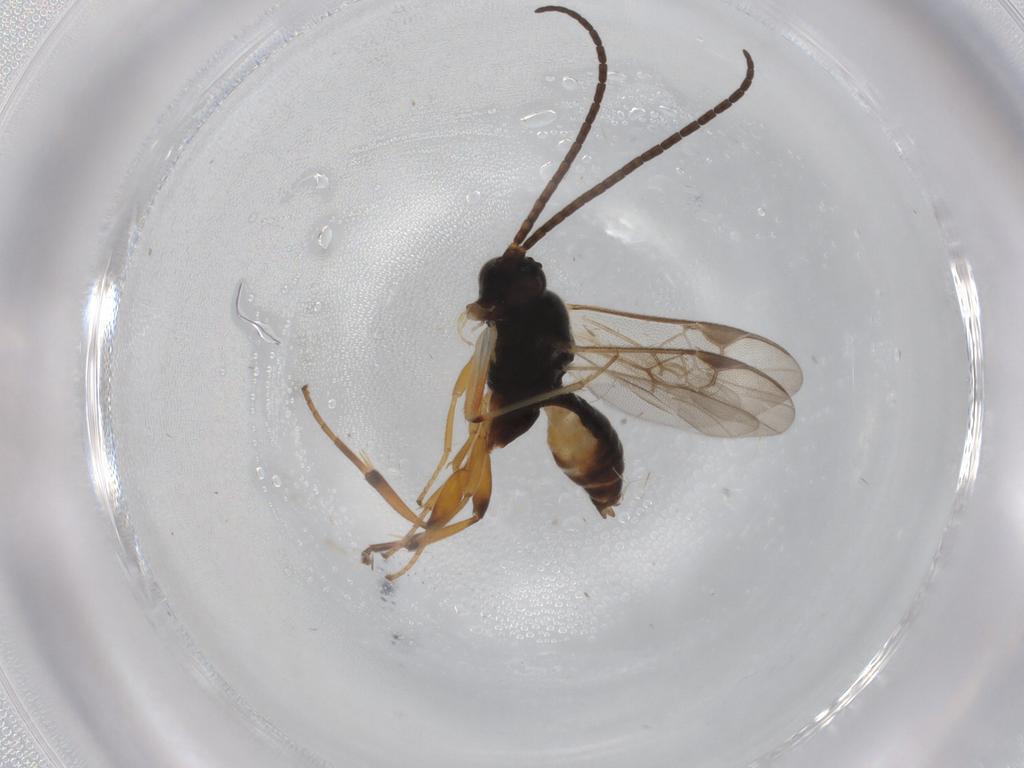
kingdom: Animalia
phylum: Arthropoda
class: Insecta
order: Hymenoptera
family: Braconidae
